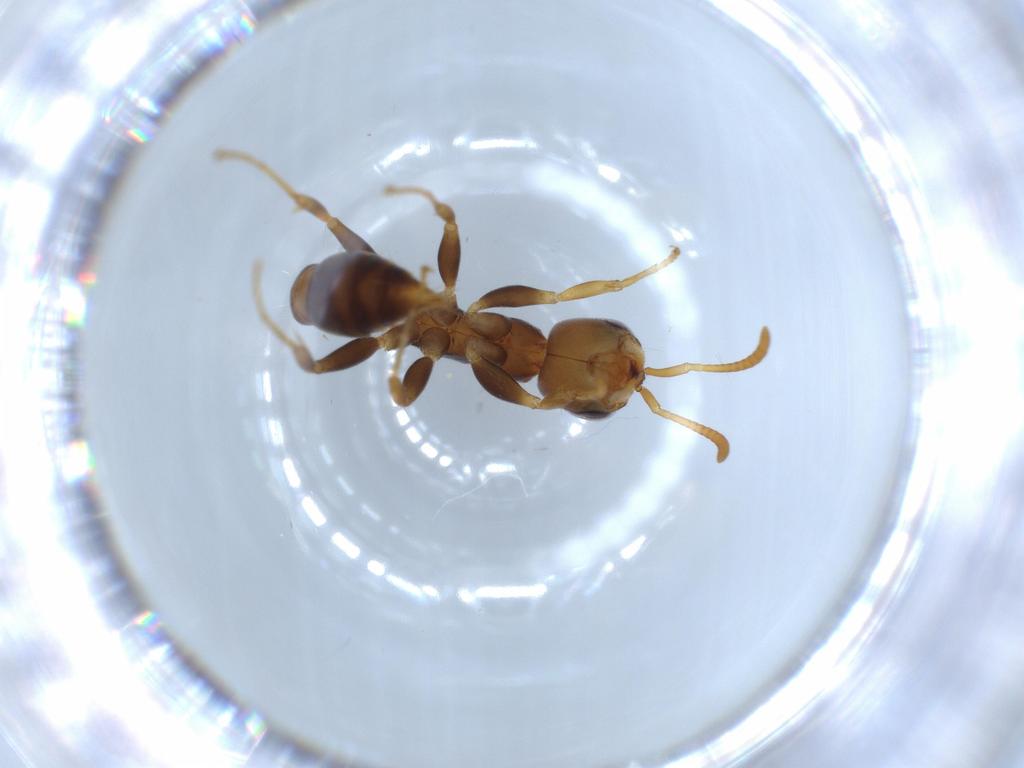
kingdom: Animalia
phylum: Arthropoda
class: Insecta
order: Hymenoptera
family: Formicidae
